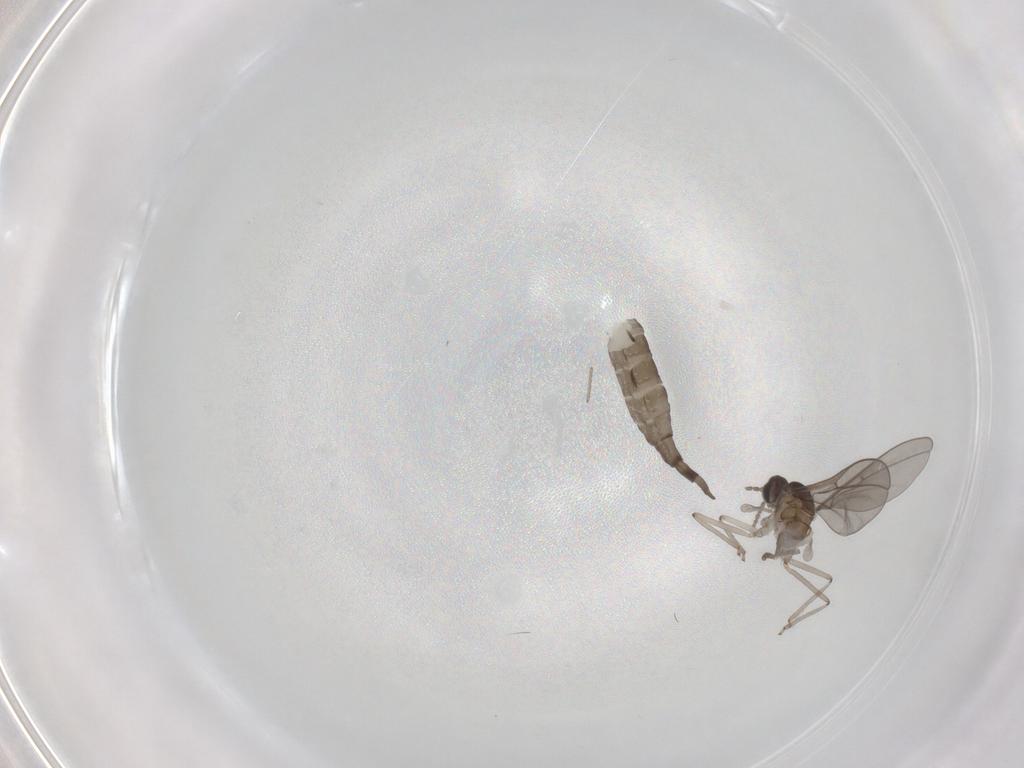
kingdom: Animalia
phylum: Arthropoda
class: Insecta
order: Diptera
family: Cecidomyiidae
